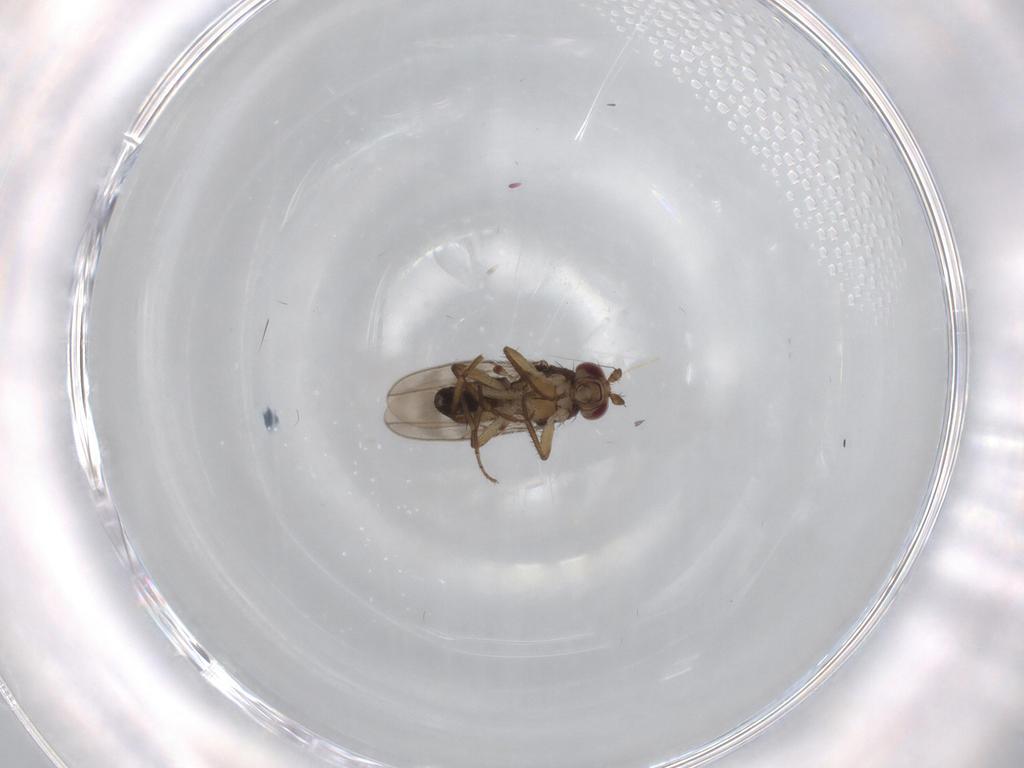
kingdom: Animalia
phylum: Arthropoda
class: Insecta
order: Diptera
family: Sphaeroceridae
